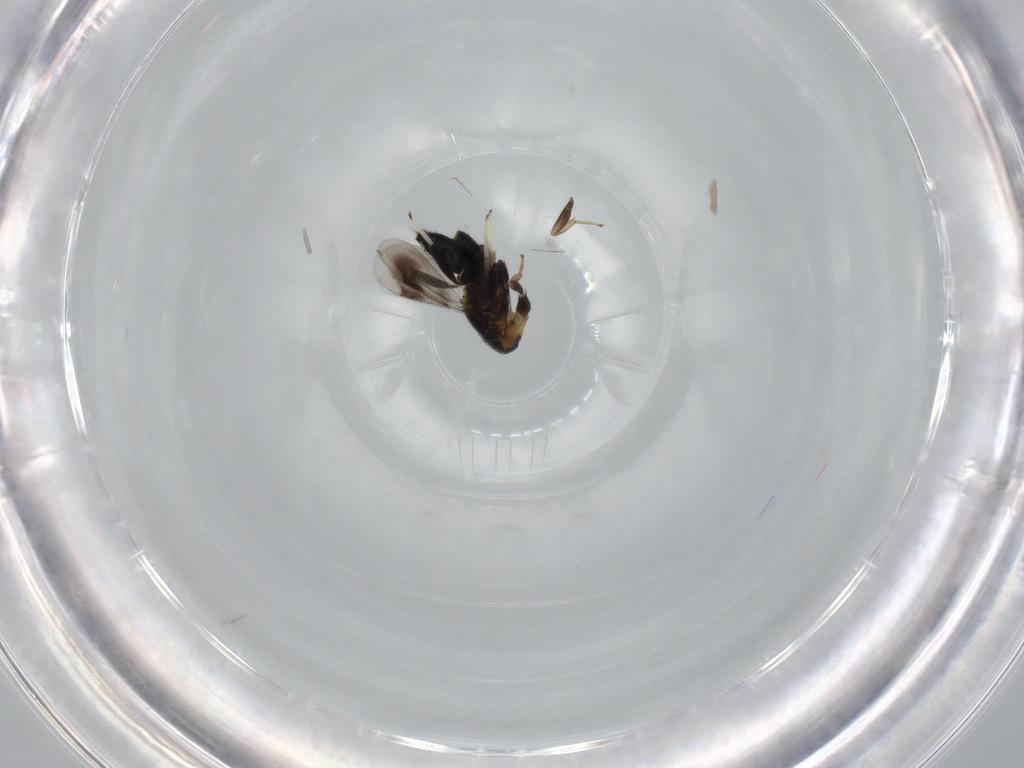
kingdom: Animalia
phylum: Arthropoda
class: Insecta
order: Hymenoptera
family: Aphelinidae
